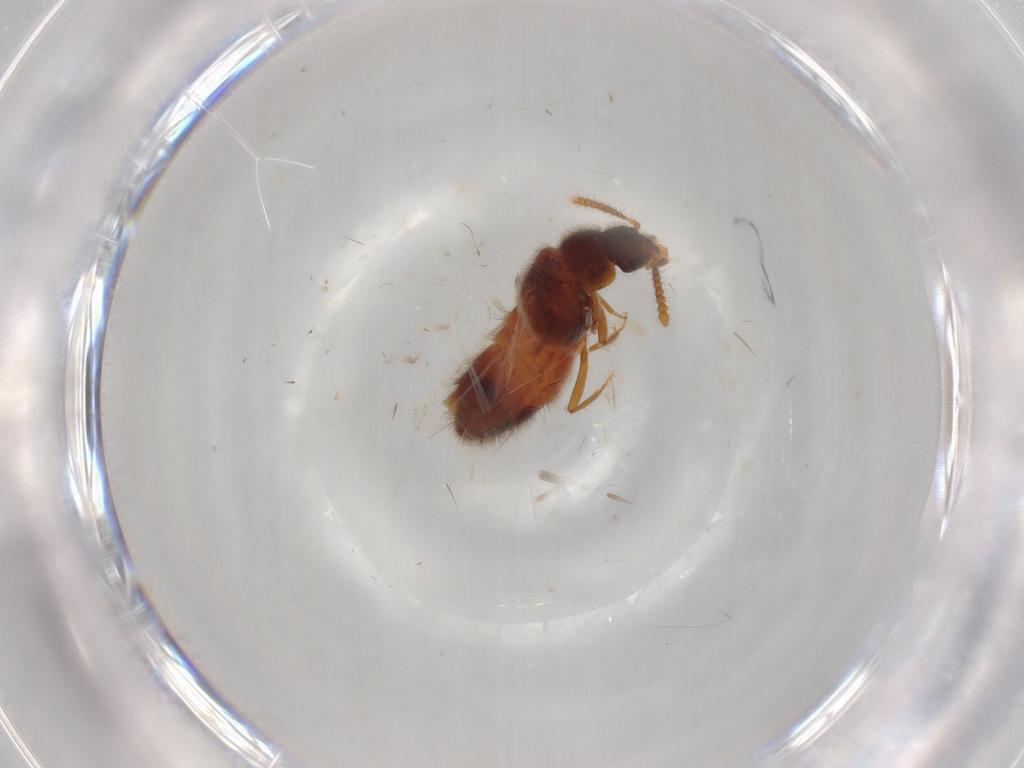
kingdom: Animalia
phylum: Arthropoda
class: Insecta
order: Coleoptera
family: Staphylinidae
